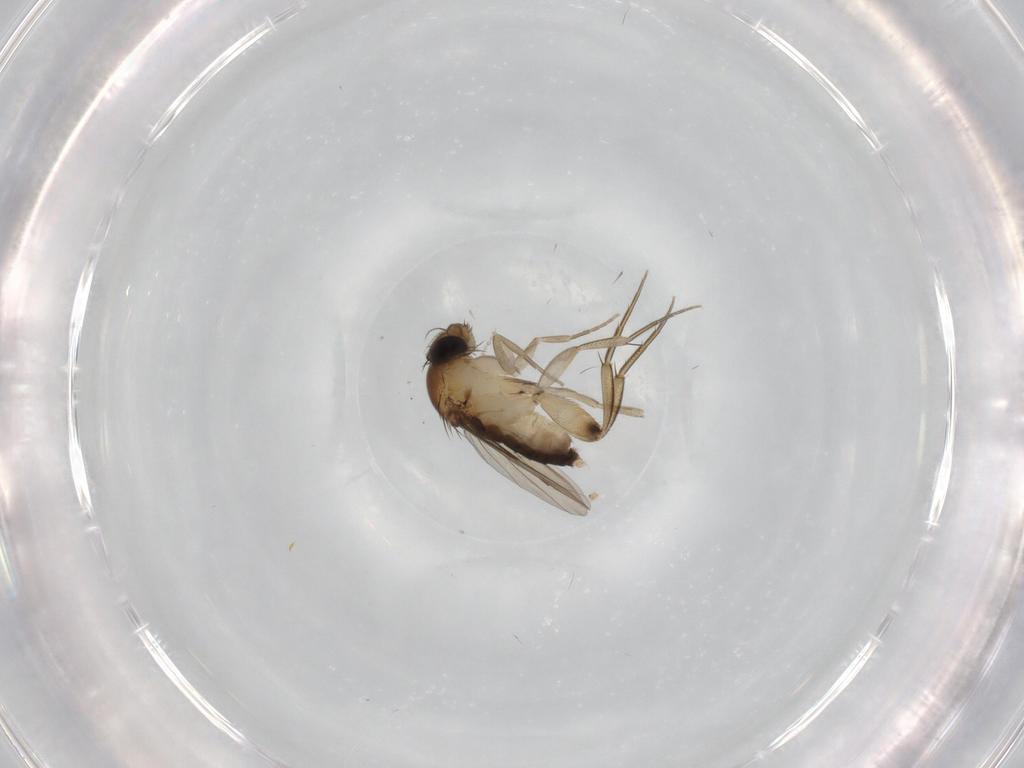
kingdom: Animalia
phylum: Arthropoda
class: Insecta
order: Diptera
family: Phoridae
